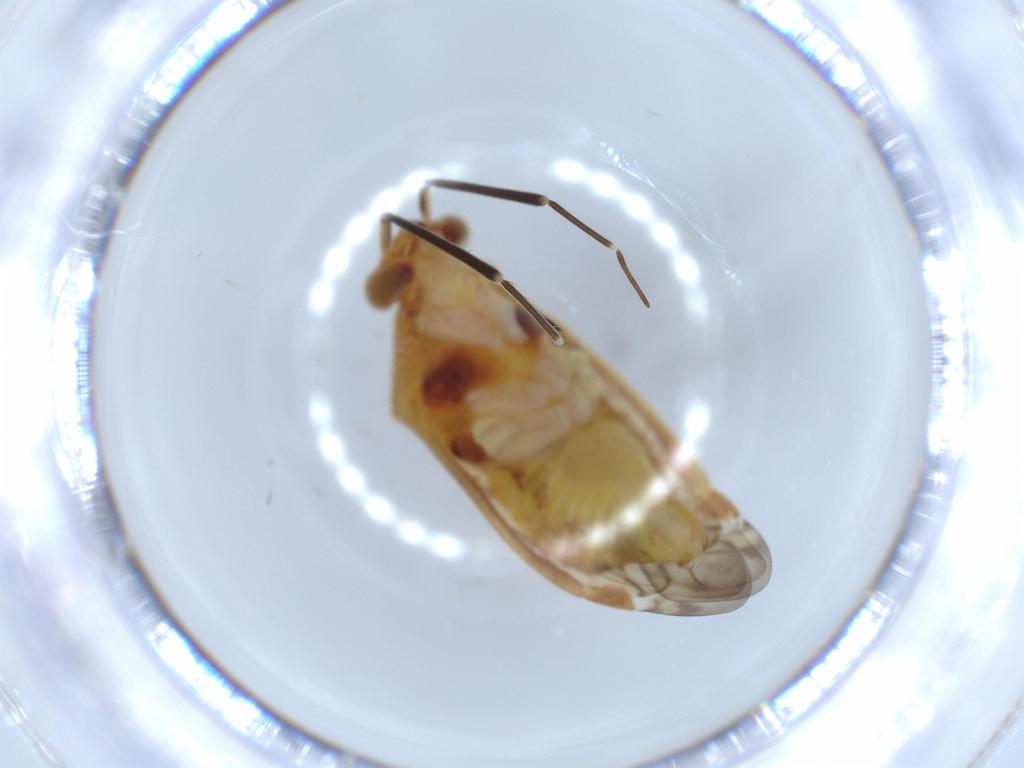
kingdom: Animalia
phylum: Arthropoda
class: Insecta
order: Hemiptera
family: Miridae
